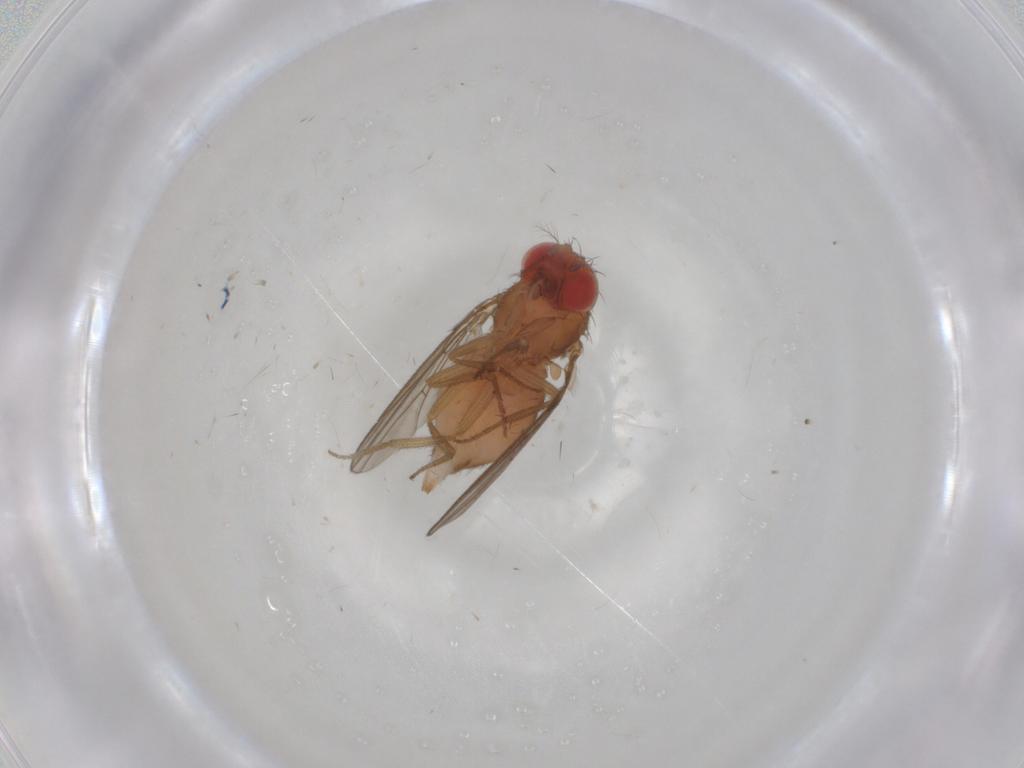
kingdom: Animalia
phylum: Arthropoda
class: Insecta
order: Diptera
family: Drosophilidae
